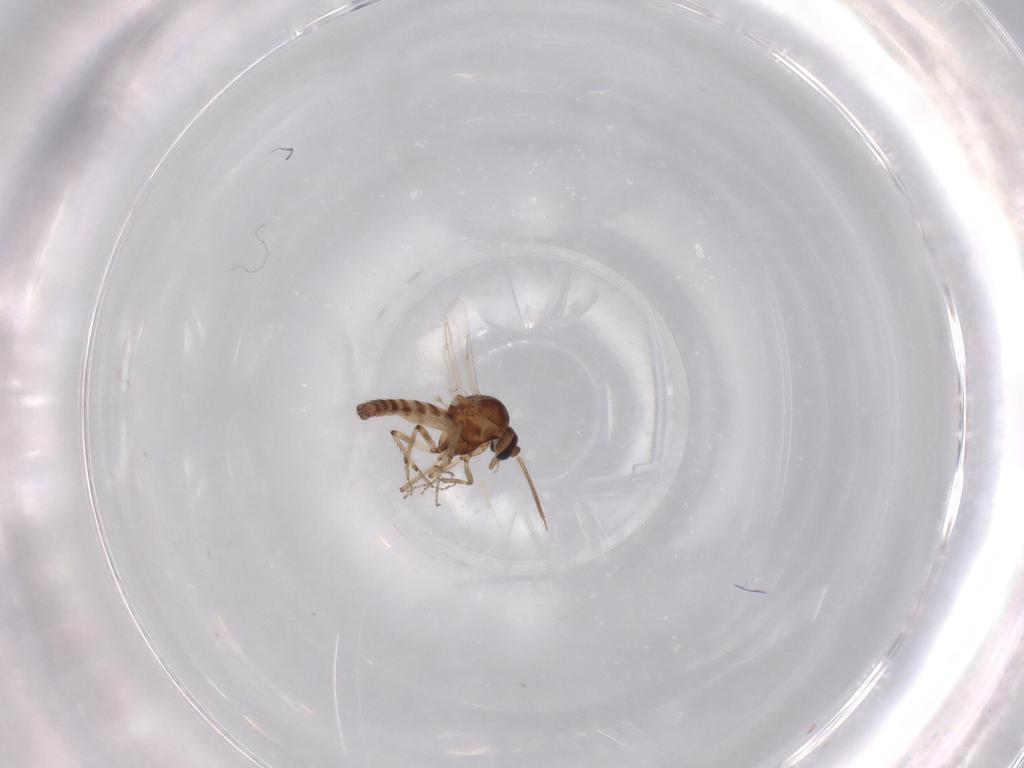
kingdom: Animalia
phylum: Arthropoda
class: Insecta
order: Diptera
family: Ceratopogonidae
